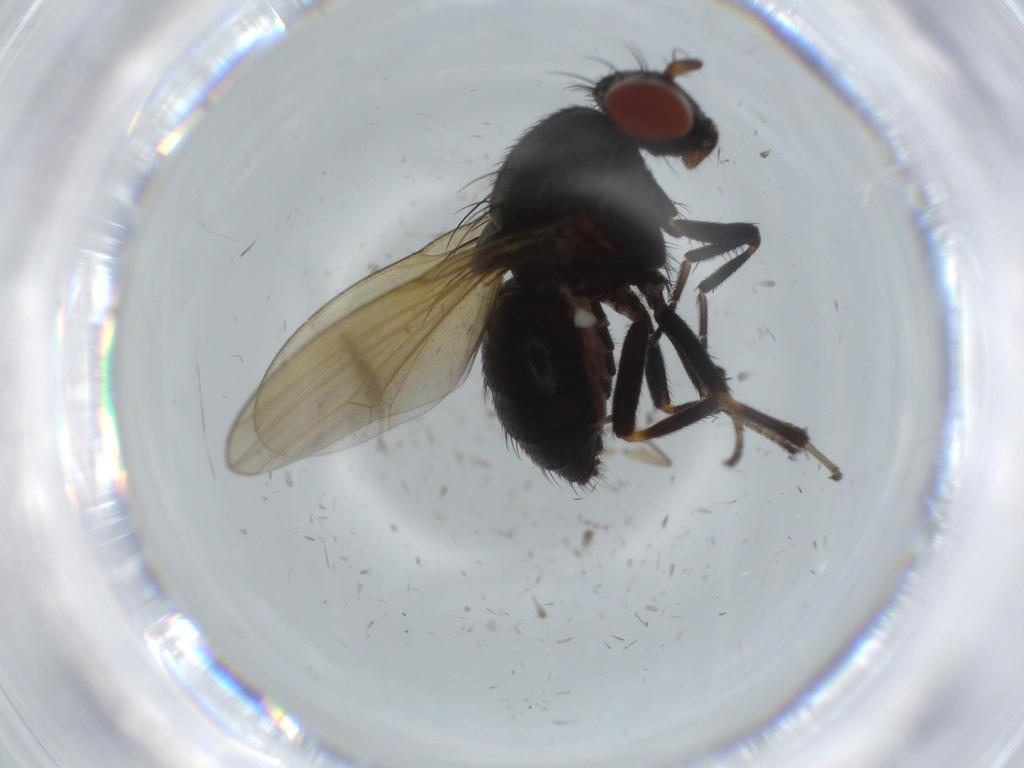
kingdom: Animalia
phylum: Arthropoda
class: Insecta
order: Diptera
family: Lauxaniidae
